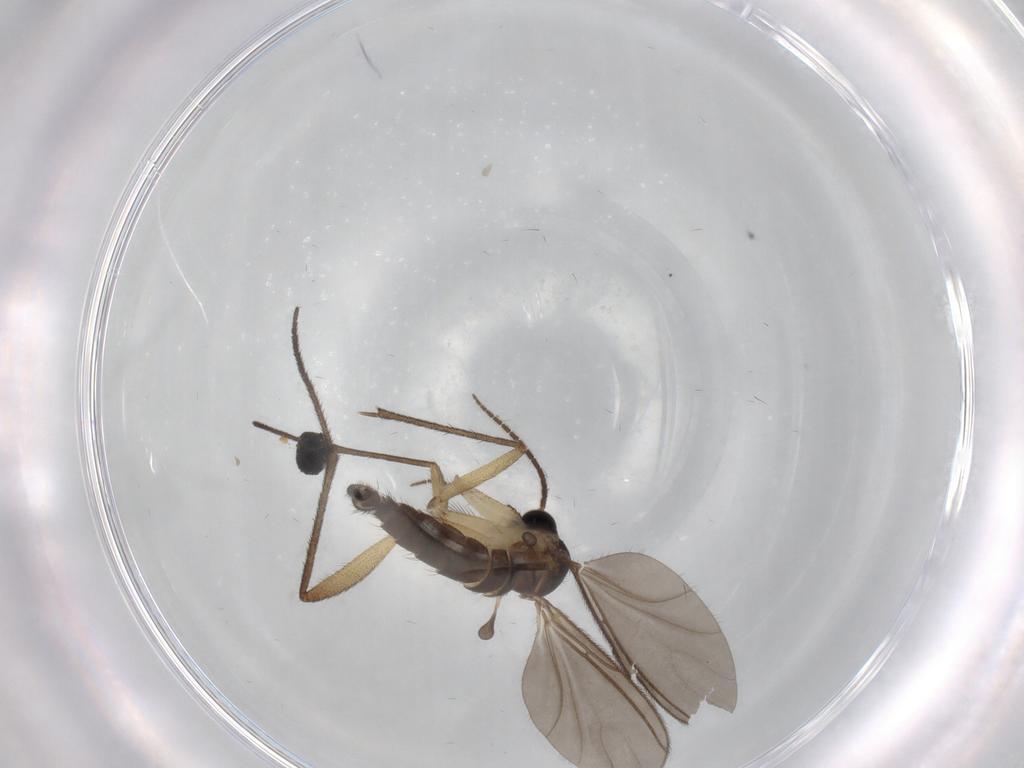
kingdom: Animalia
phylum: Arthropoda
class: Insecta
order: Diptera
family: Sciaridae
